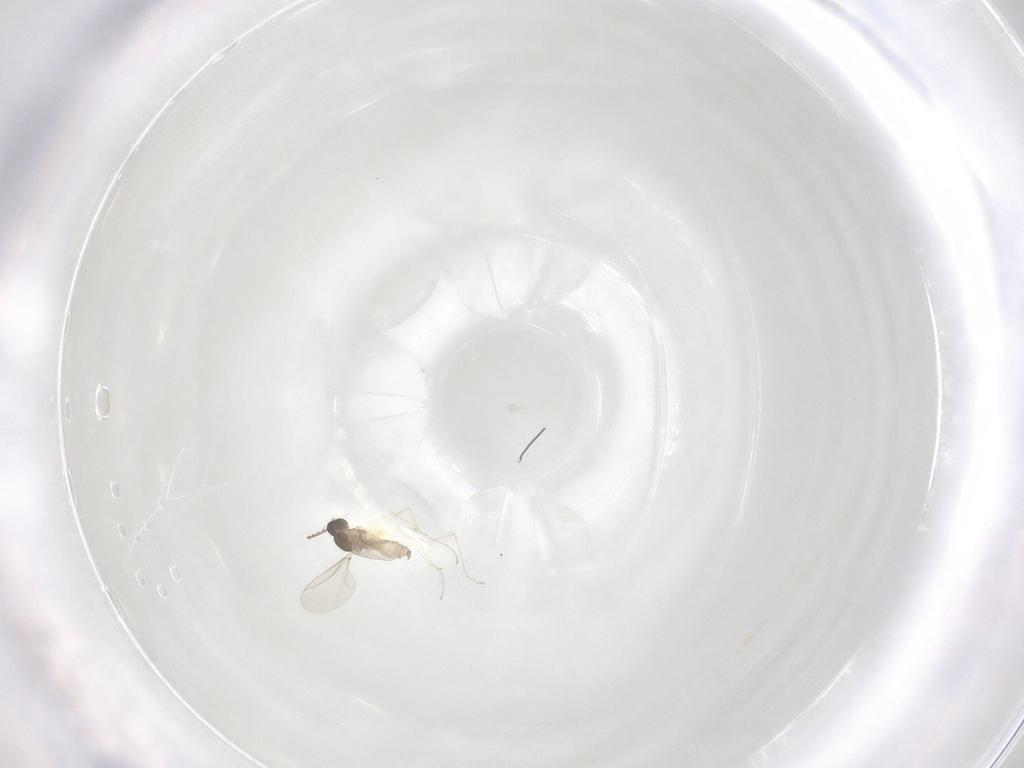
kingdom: Animalia
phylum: Arthropoda
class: Insecta
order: Diptera
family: Cecidomyiidae
